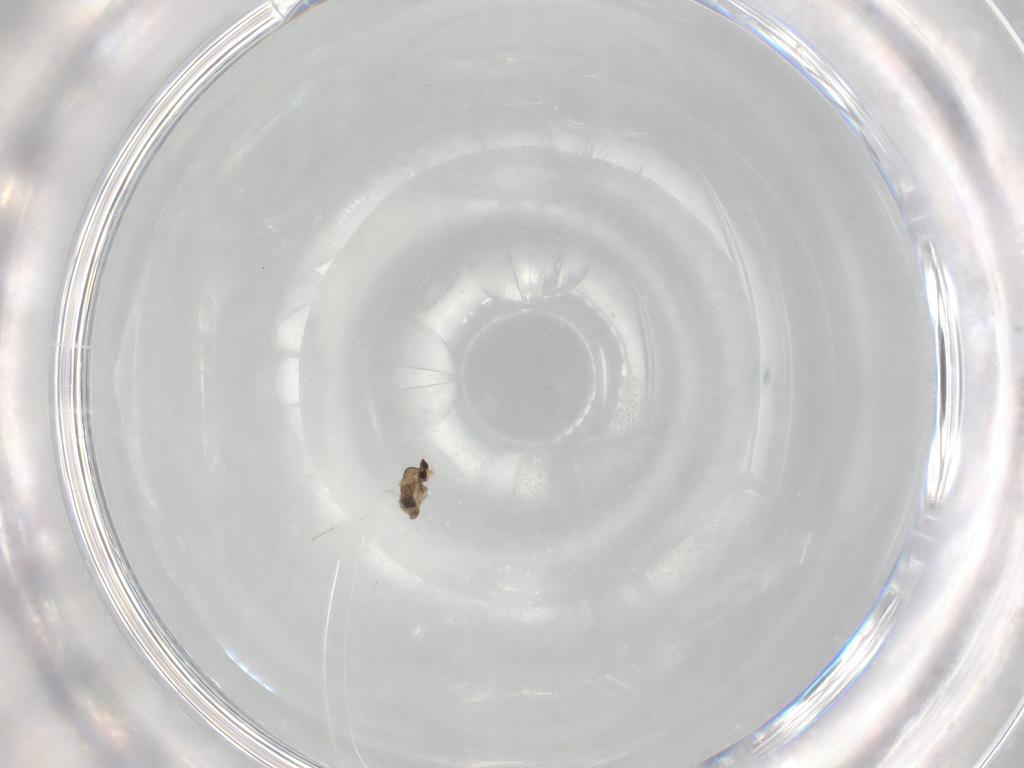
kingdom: Animalia
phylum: Arthropoda
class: Insecta
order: Diptera
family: Cecidomyiidae
